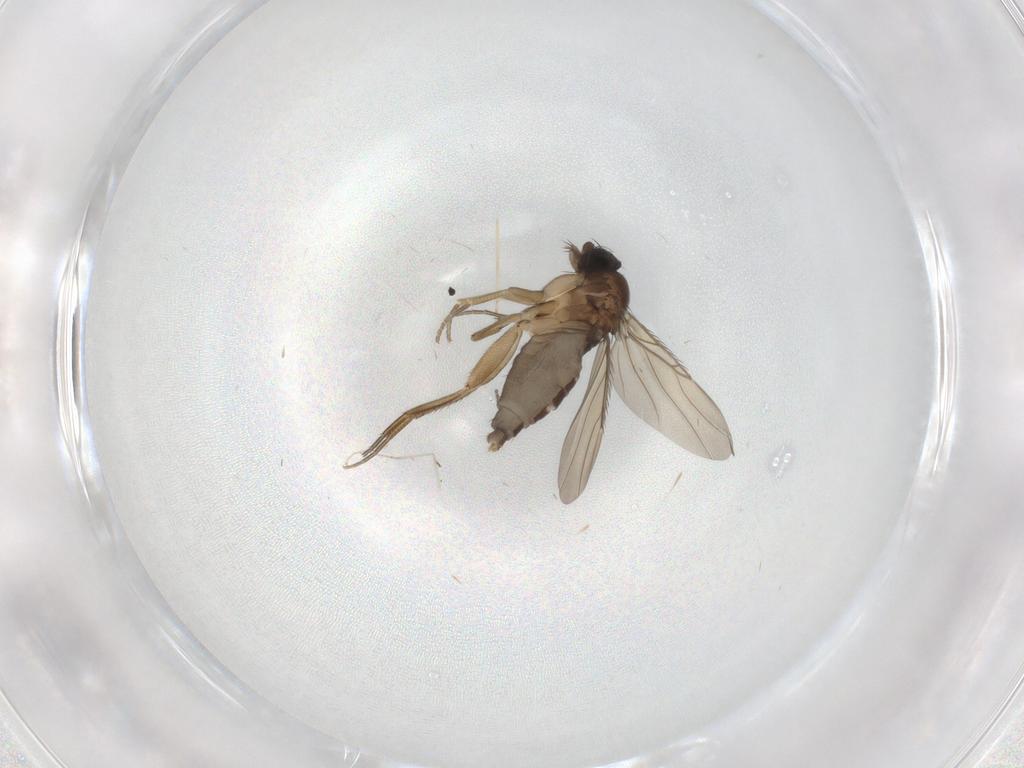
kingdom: Animalia
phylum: Arthropoda
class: Insecta
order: Diptera
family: Phoridae
